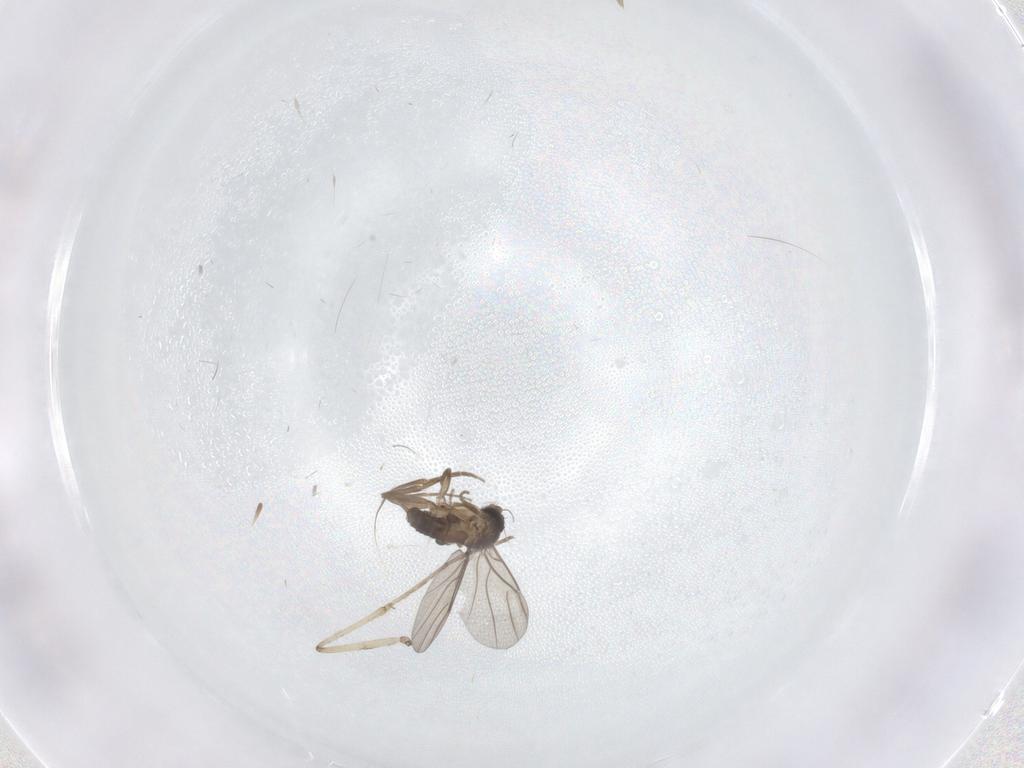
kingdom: Animalia
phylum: Arthropoda
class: Insecta
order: Diptera
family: Cecidomyiidae
